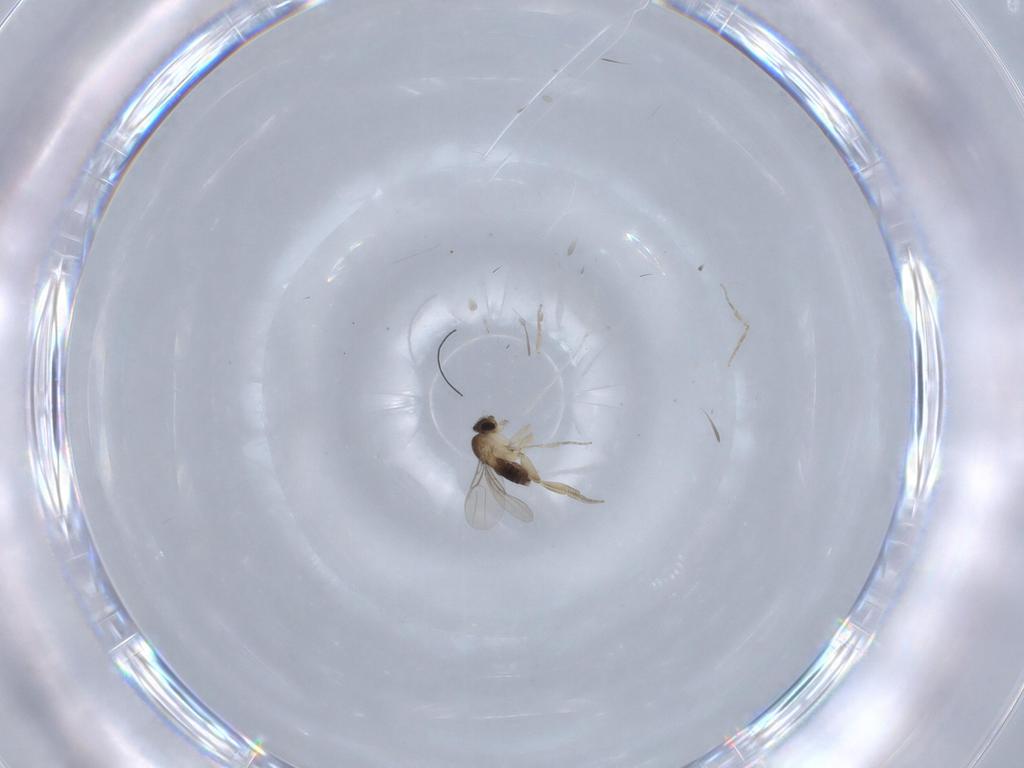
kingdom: Animalia
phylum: Arthropoda
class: Insecta
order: Diptera
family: Phoridae
